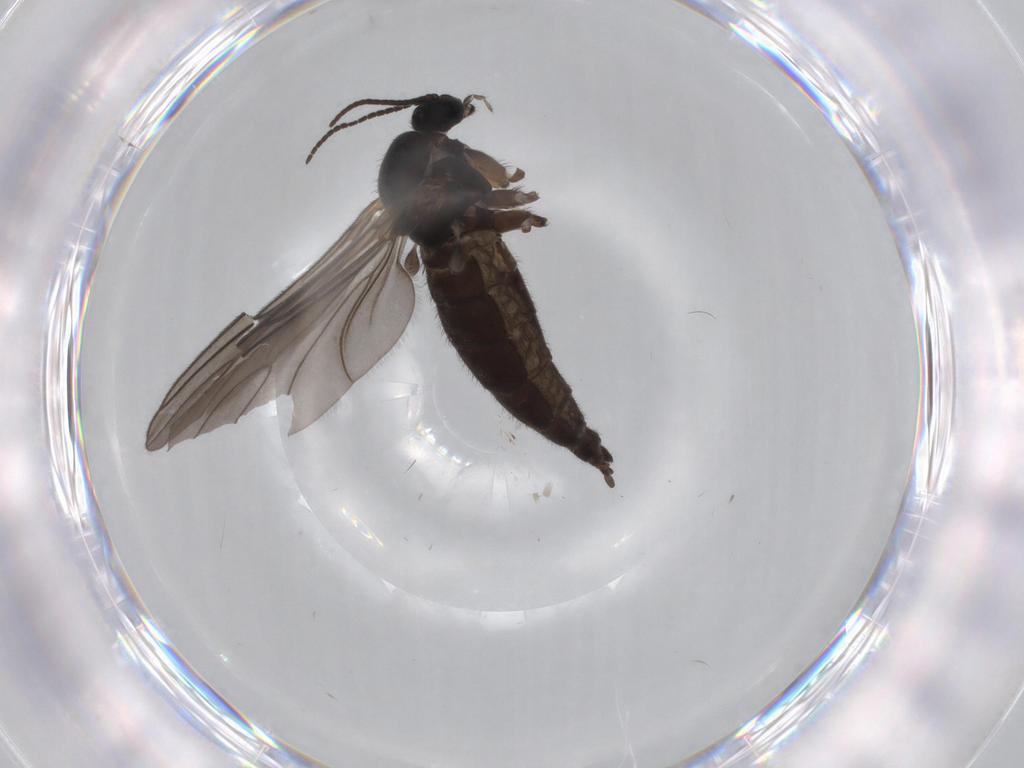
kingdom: Animalia
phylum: Arthropoda
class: Insecta
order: Diptera
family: Sciaridae
